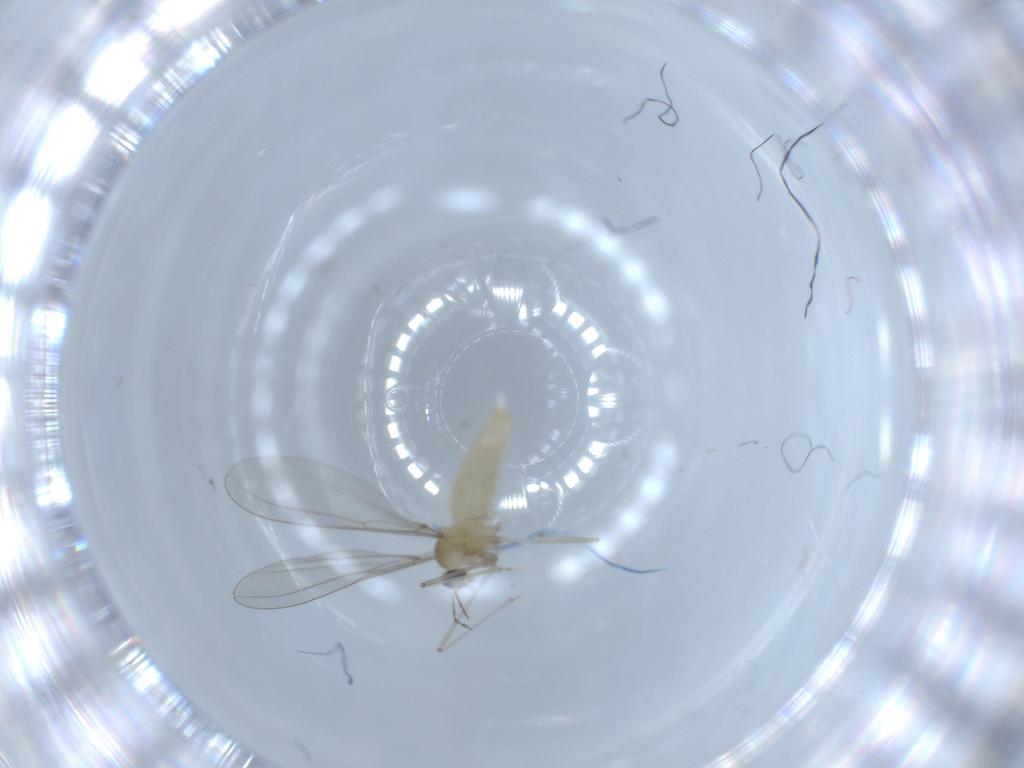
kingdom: Animalia
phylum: Arthropoda
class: Insecta
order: Diptera
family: Cecidomyiidae
